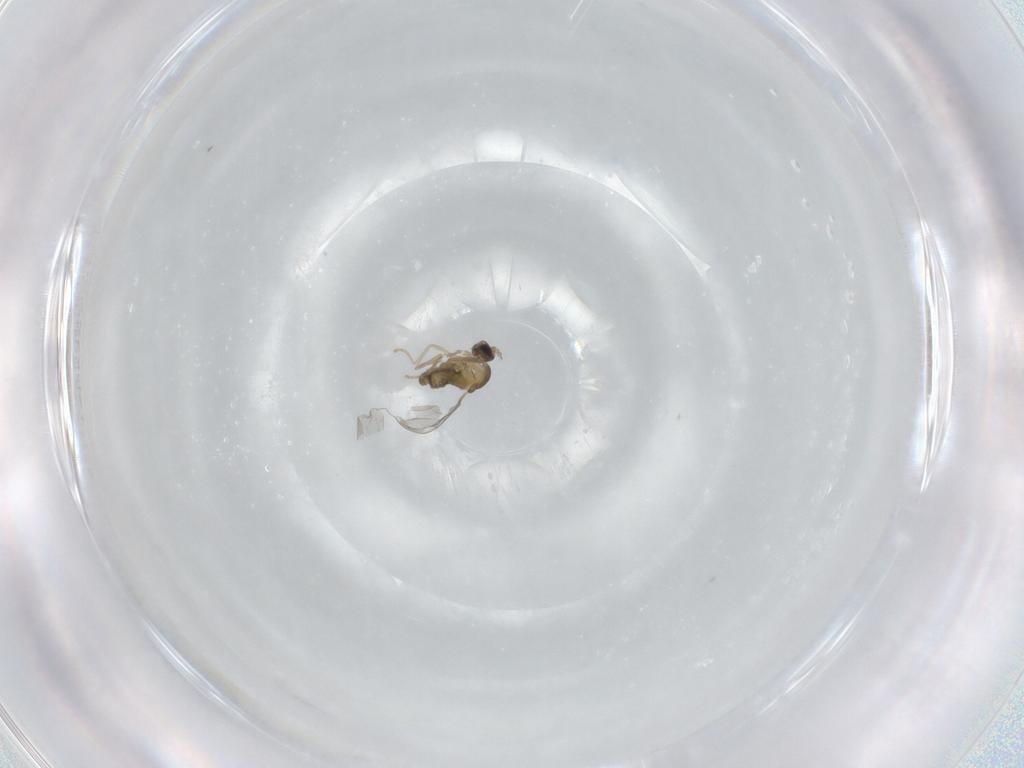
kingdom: Animalia
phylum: Arthropoda
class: Insecta
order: Diptera
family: Cecidomyiidae
